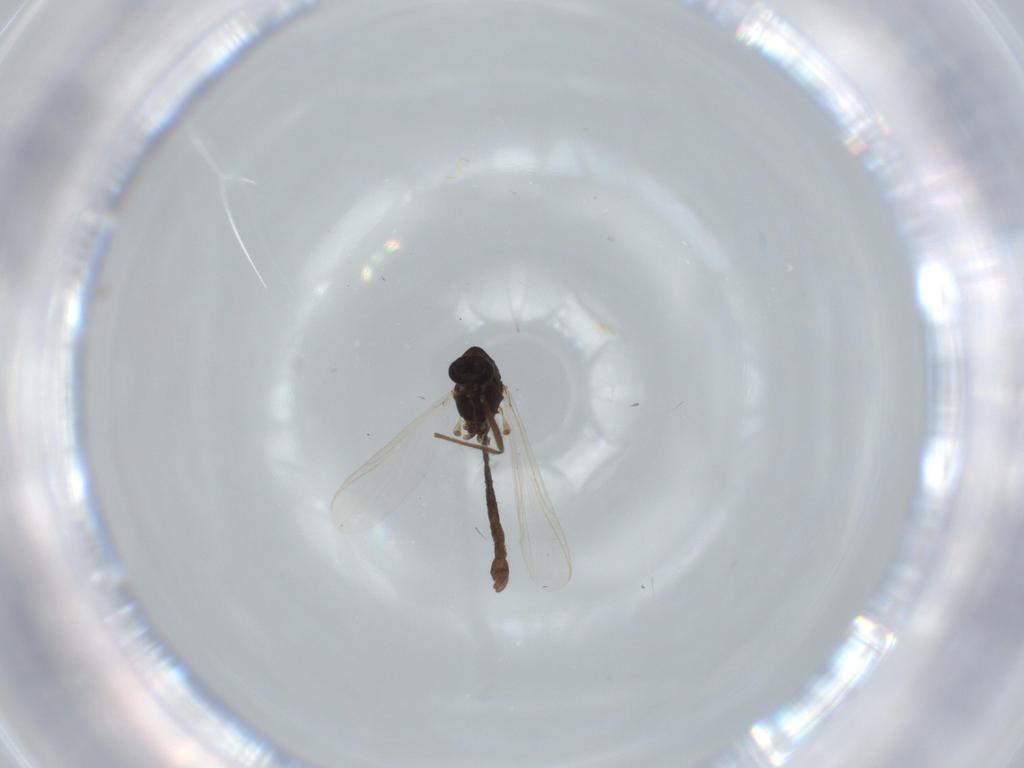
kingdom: Animalia
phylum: Arthropoda
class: Insecta
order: Diptera
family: Chironomidae
